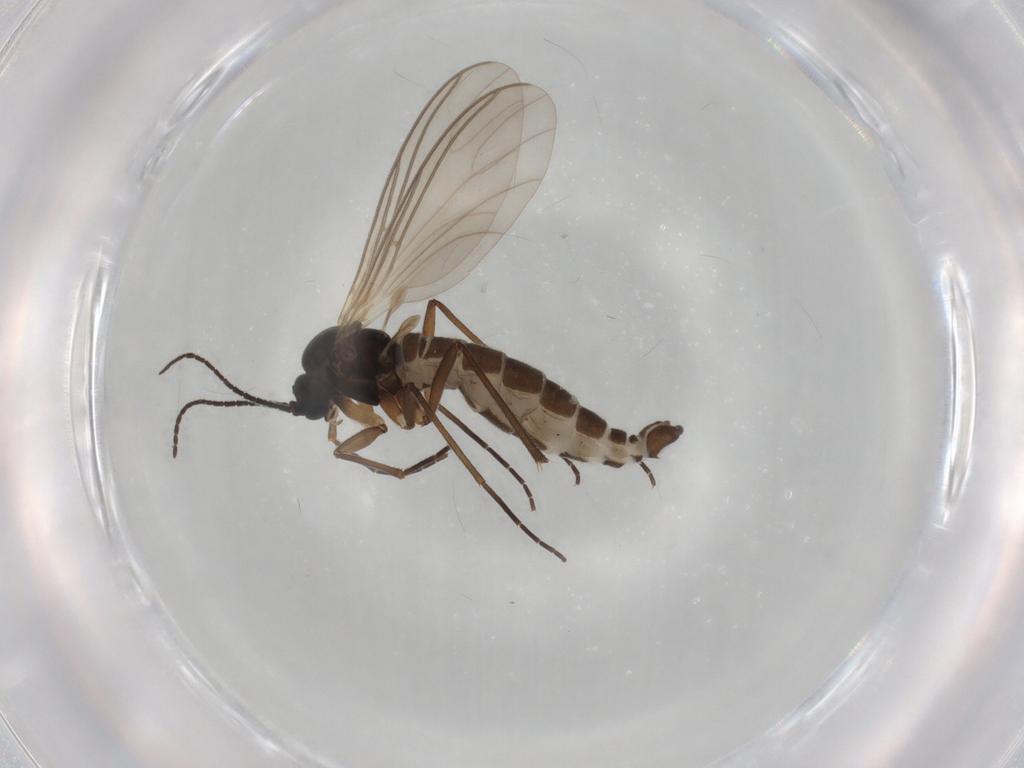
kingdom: Animalia
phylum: Arthropoda
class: Insecta
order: Diptera
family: Sciaridae
